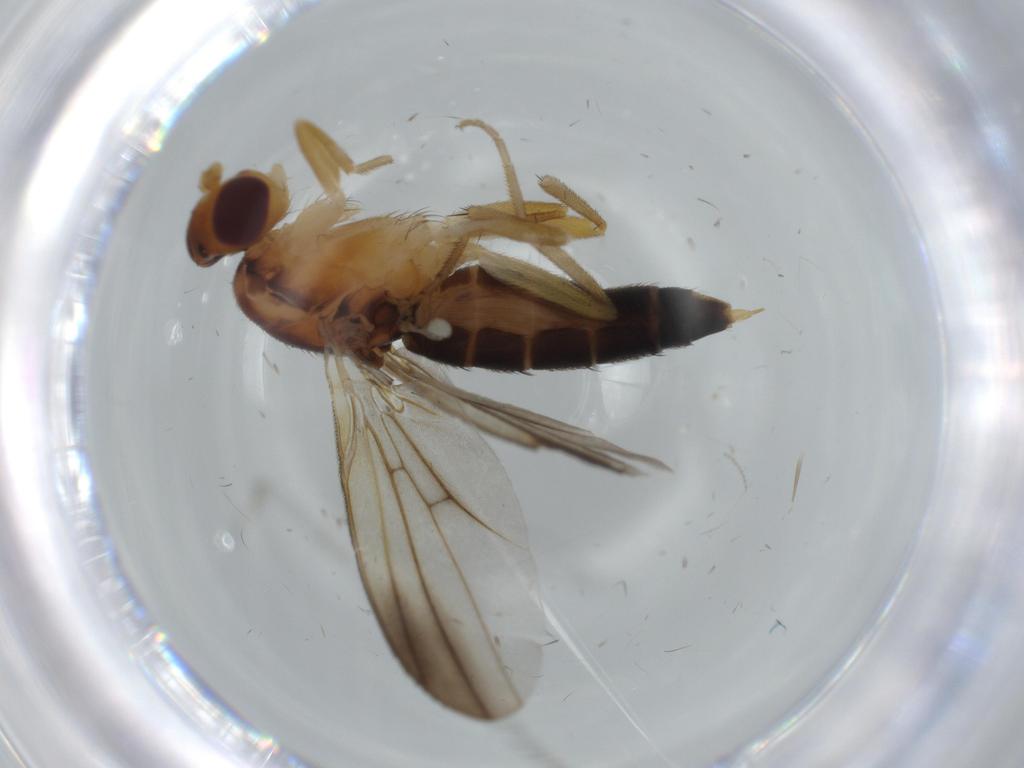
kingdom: Animalia
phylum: Arthropoda
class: Insecta
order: Diptera
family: Clusiidae
